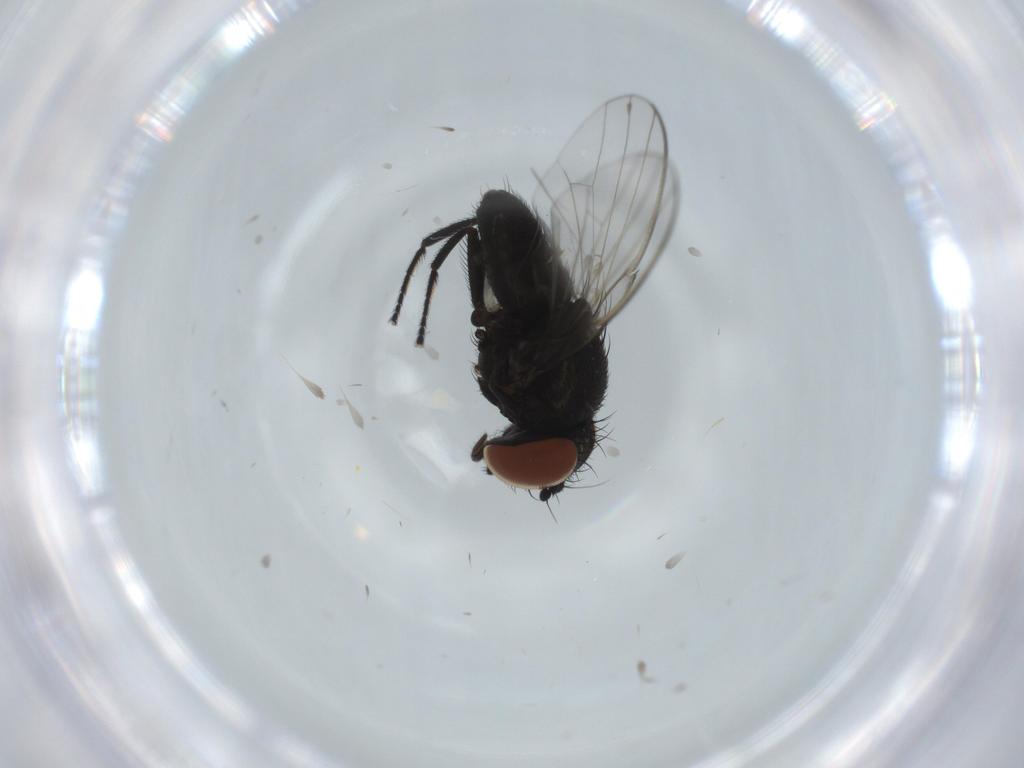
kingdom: Animalia
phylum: Arthropoda
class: Insecta
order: Diptera
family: Milichiidae
